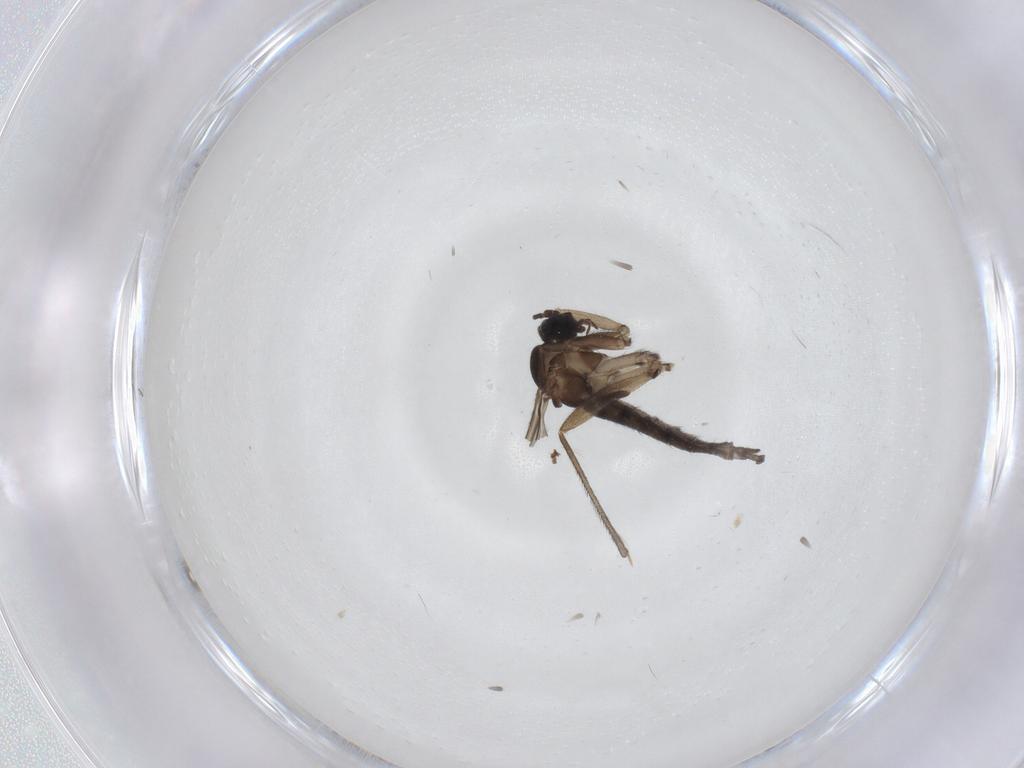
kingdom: Animalia
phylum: Arthropoda
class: Insecta
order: Diptera
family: Sciaridae
